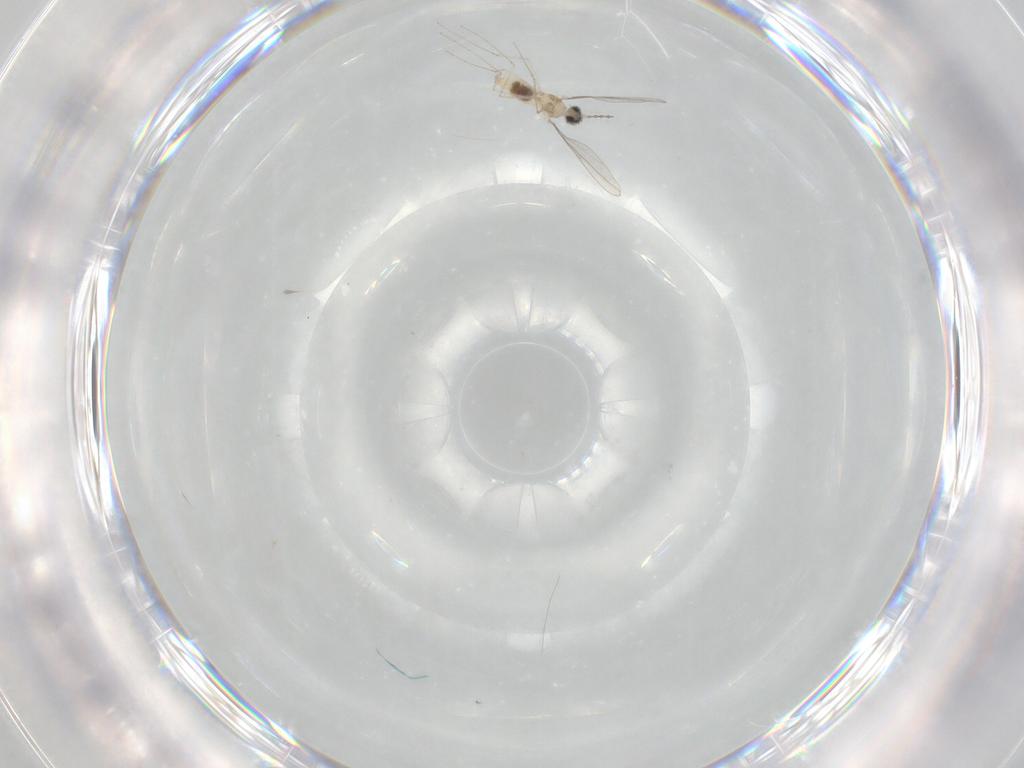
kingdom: Animalia
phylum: Arthropoda
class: Insecta
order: Diptera
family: Cecidomyiidae
